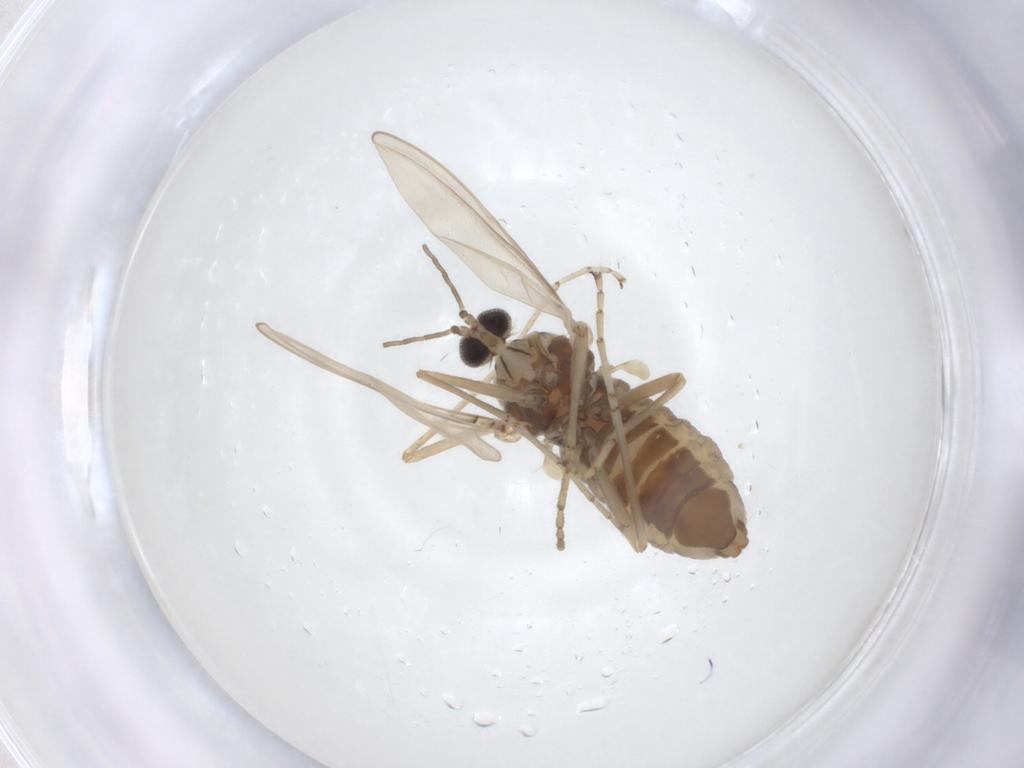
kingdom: Animalia
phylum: Arthropoda
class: Insecta
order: Diptera
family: Cecidomyiidae
